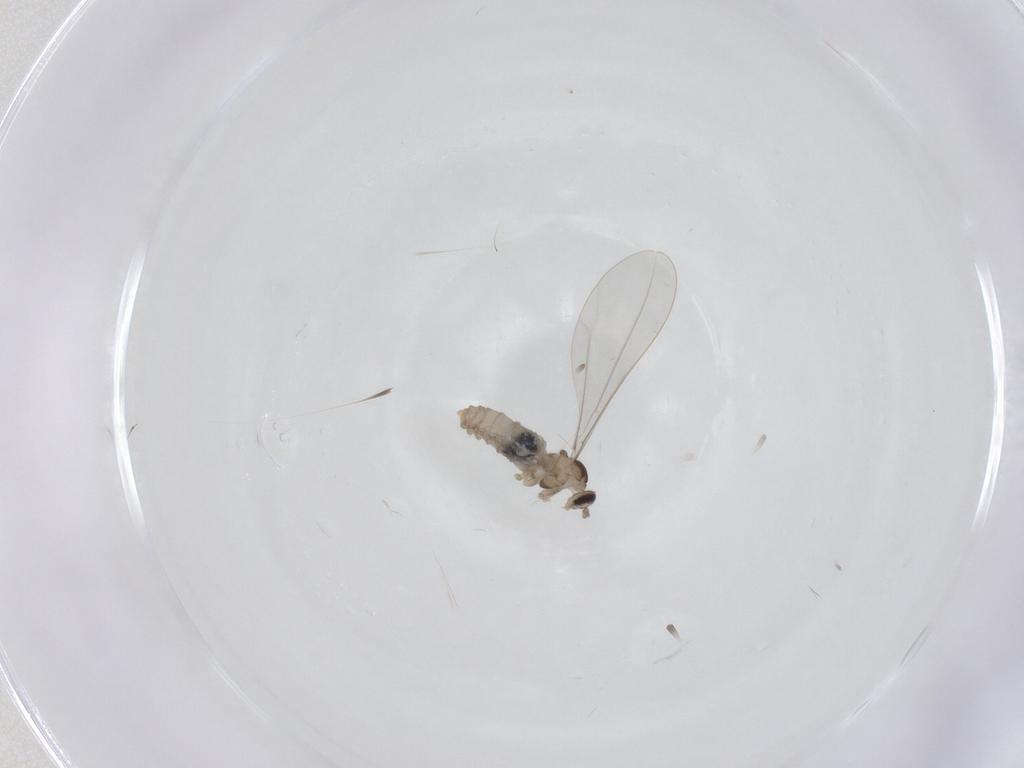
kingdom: Animalia
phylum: Arthropoda
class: Insecta
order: Diptera
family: Cecidomyiidae
